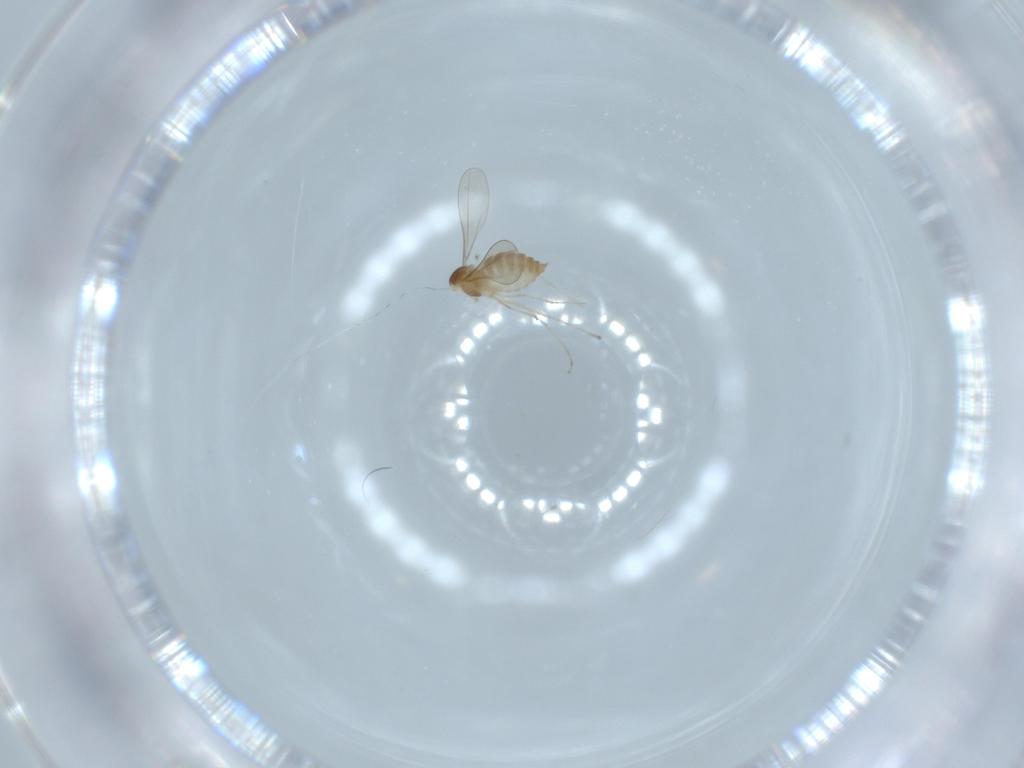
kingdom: Animalia
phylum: Arthropoda
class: Insecta
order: Diptera
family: Cecidomyiidae
